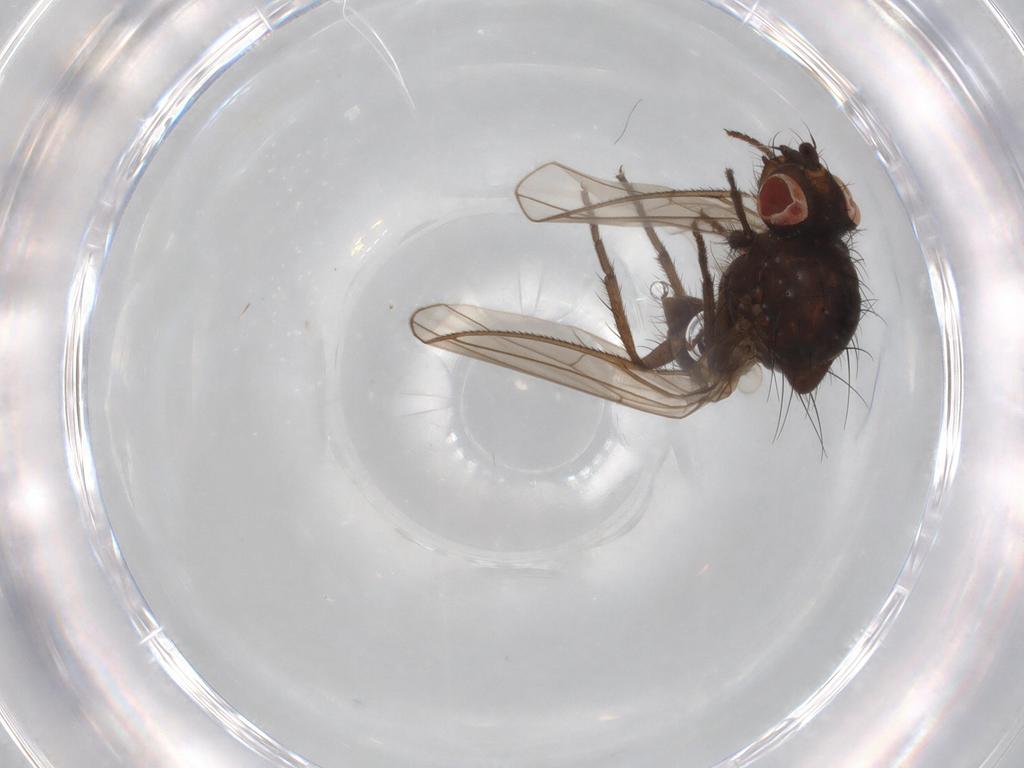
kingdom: Animalia
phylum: Arthropoda
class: Insecta
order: Diptera
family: Anthomyiidae
